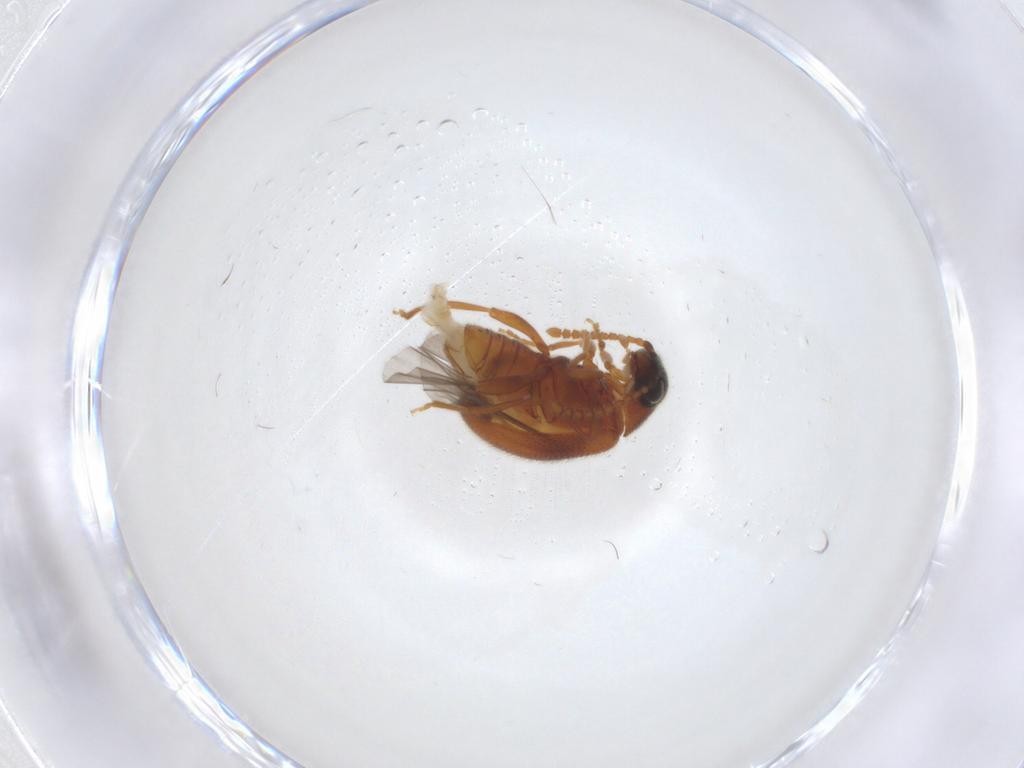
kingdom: Animalia
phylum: Arthropoda
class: Insecta
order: Coleoptera
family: Aderidae
